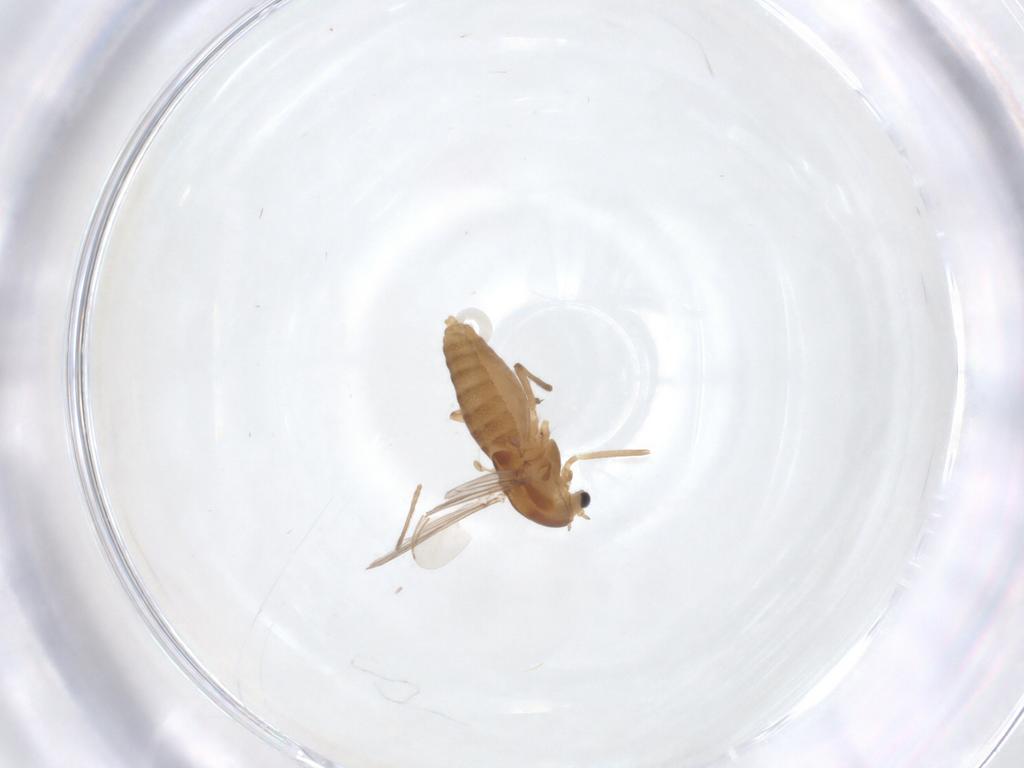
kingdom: Animalia
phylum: Arthropoda
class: Insecta
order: Diptera
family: Chironomidae
